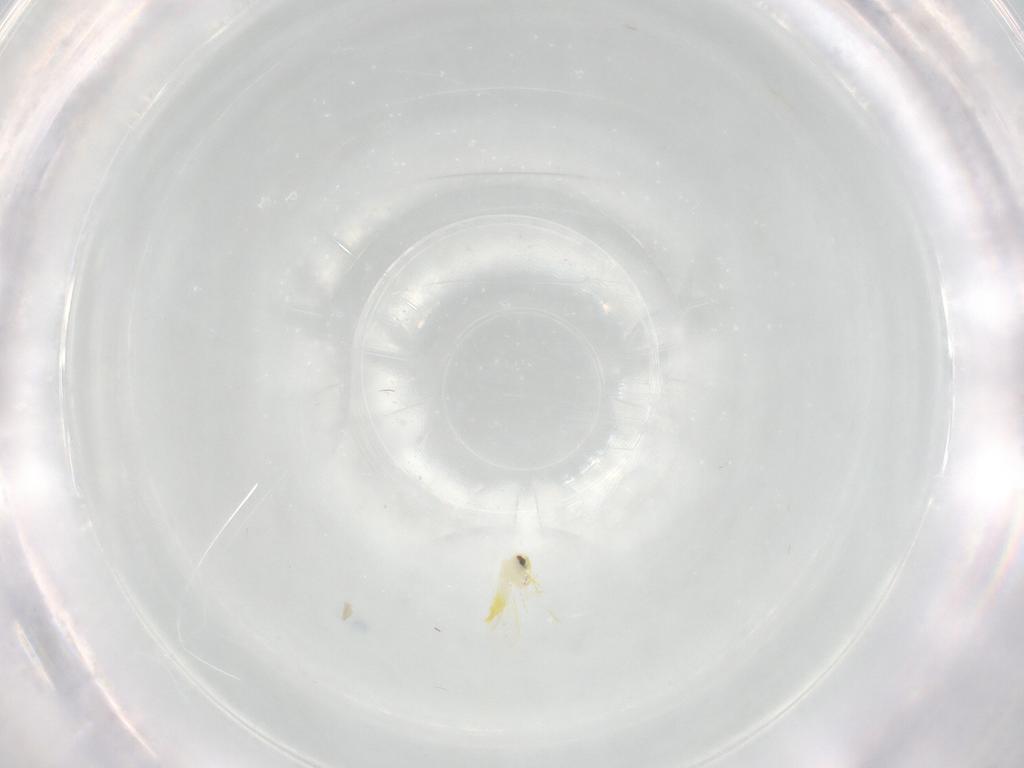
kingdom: Animalia
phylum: Arthropoda
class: Insecta
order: Hemiptera
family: Aleyrodidae
